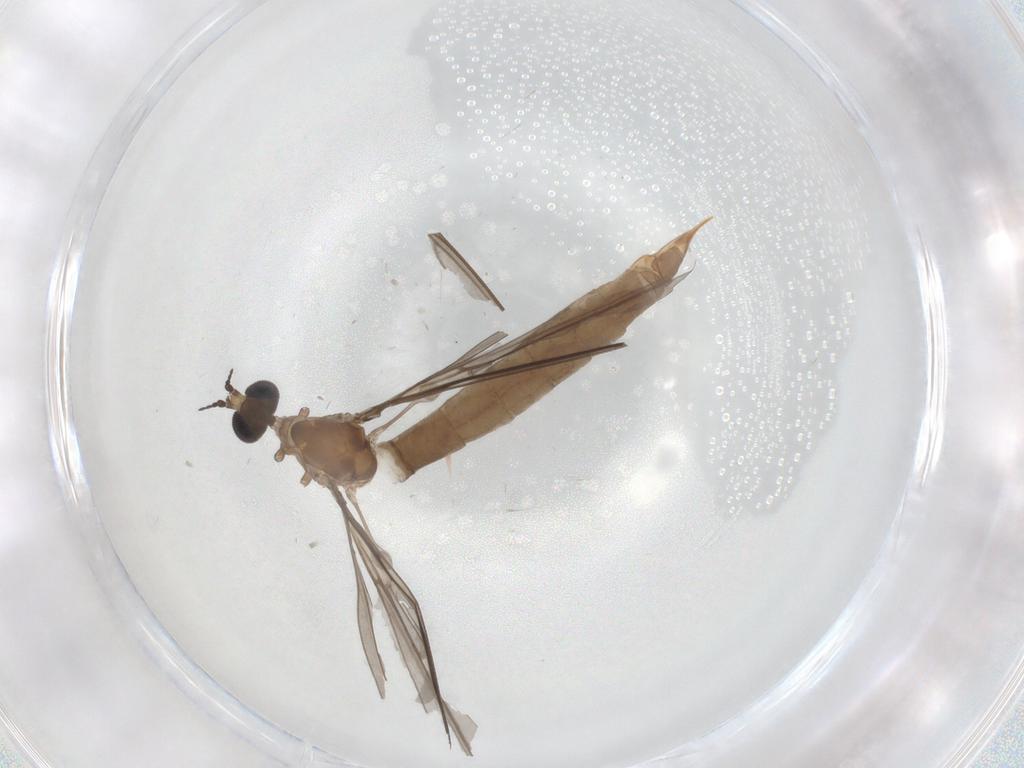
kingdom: Animalia
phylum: Arthropoda
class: Insecta
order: Diptera
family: Limoniidae
